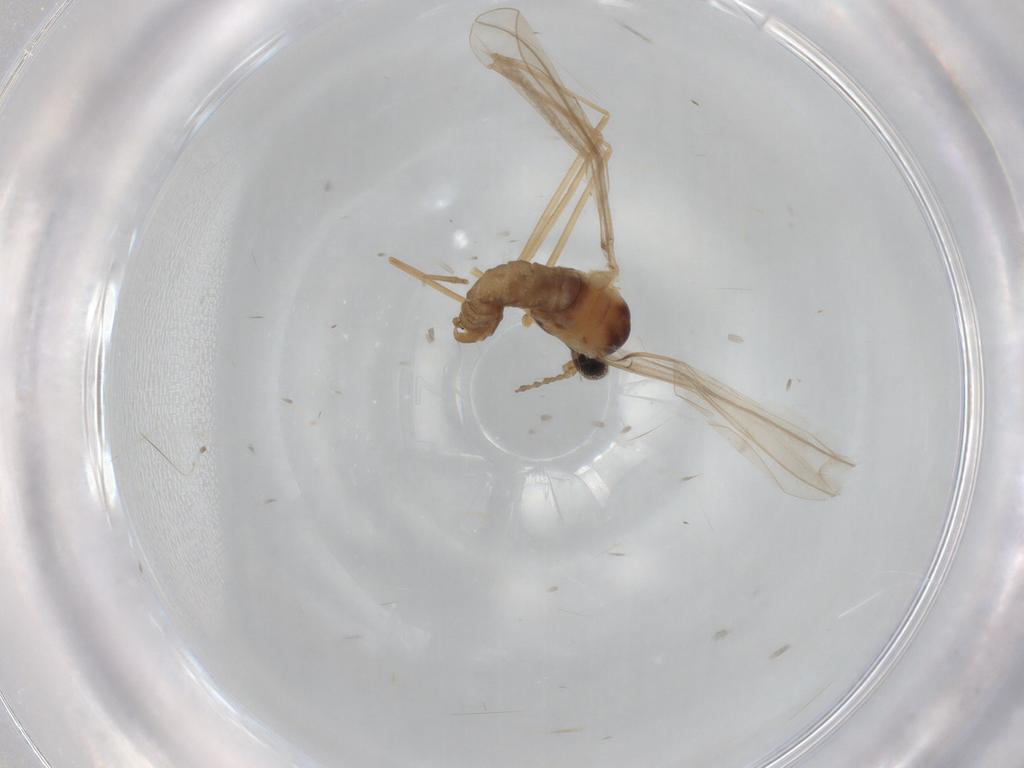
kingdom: Animalia
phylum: Arthropoda
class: Insecta
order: Diptera
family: Cecidomyiidae
